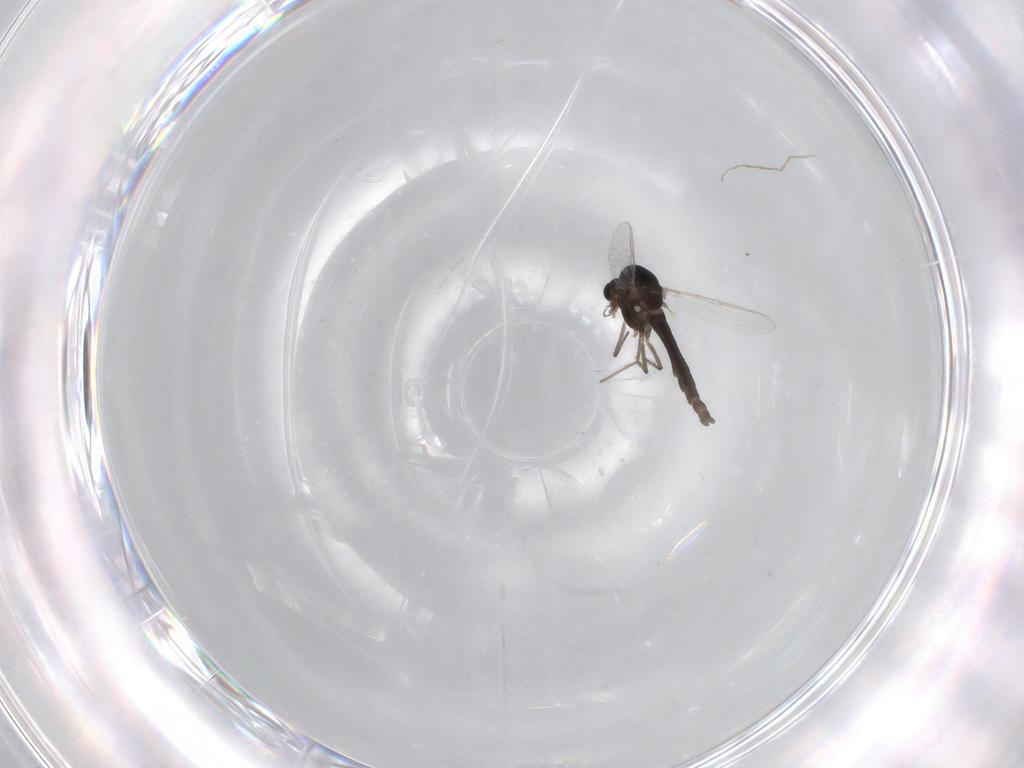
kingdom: Animalia
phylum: Arthropoda
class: Insecta
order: Diptera
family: Chironomidae
